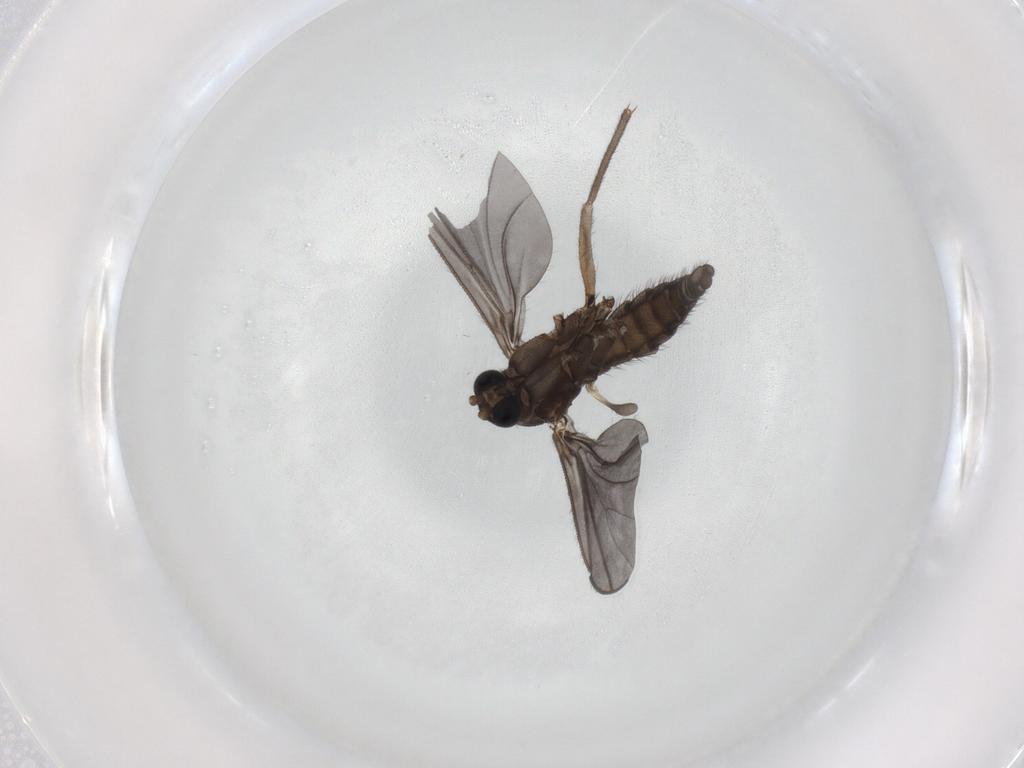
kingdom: Animalia
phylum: Arthropoda
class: Insecta
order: Diptera
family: Sciaridae
